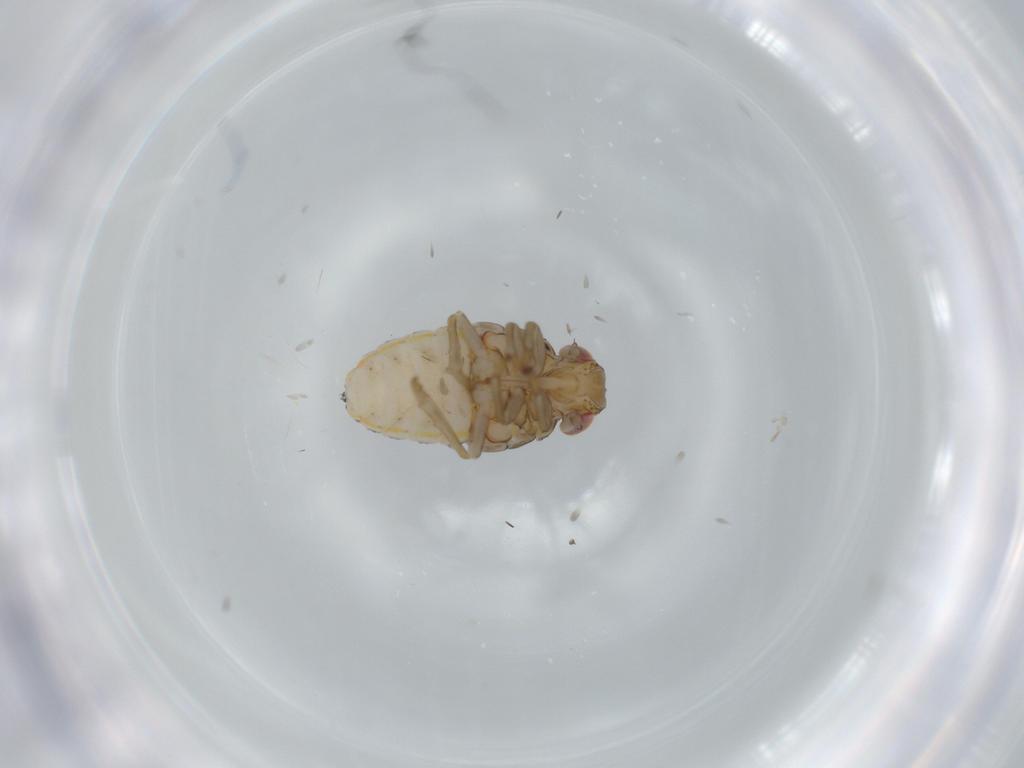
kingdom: Animalia
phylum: Arthropoda
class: Insecta
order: Hemiptera
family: Issidae
